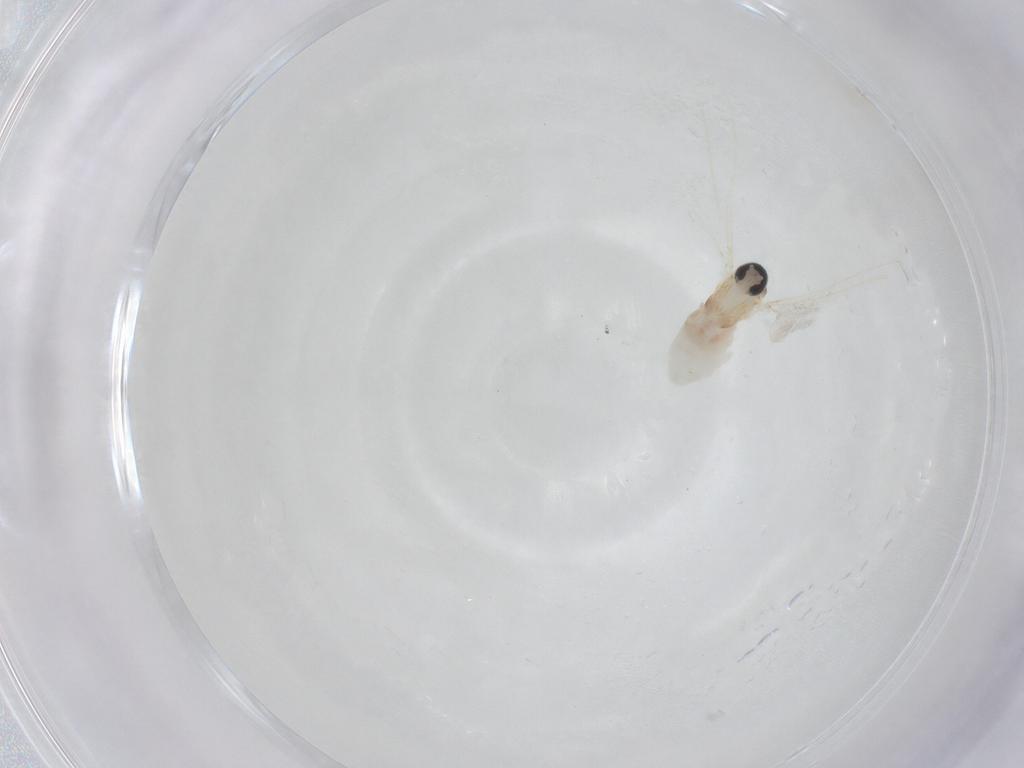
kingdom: Animalia
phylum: Arthropoda
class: Insecta
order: Diptera
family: Cecidomyiidae
